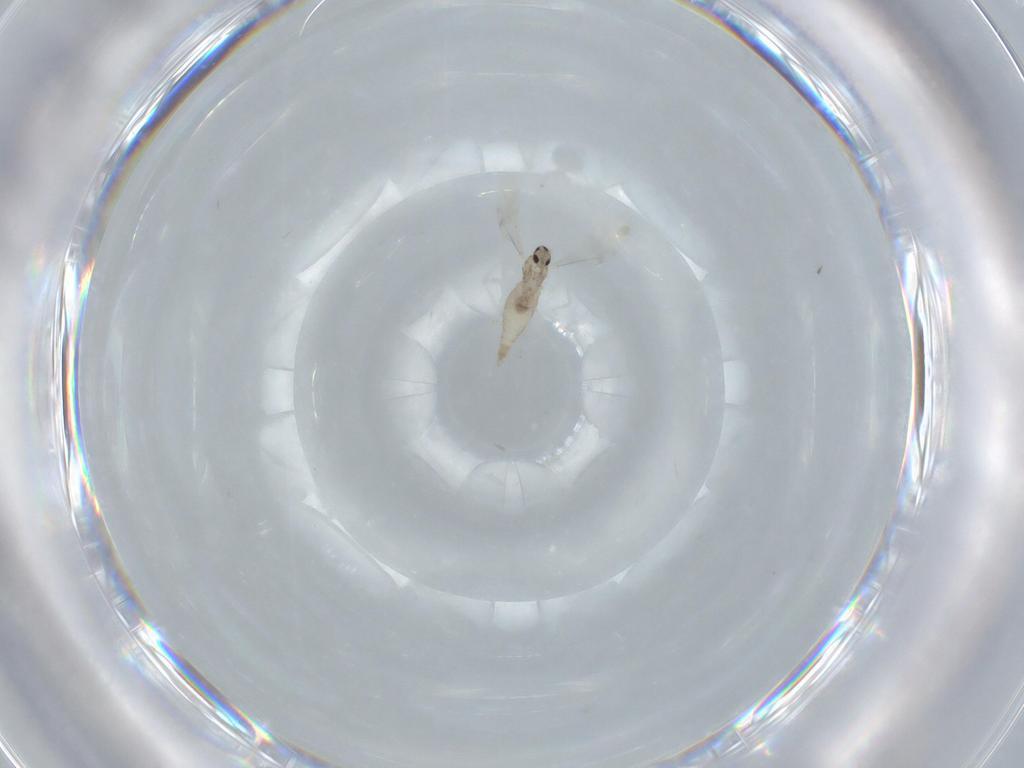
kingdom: Animalia
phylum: Arthropoda
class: Insecta
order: Diptera
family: Cecidomyiidae
